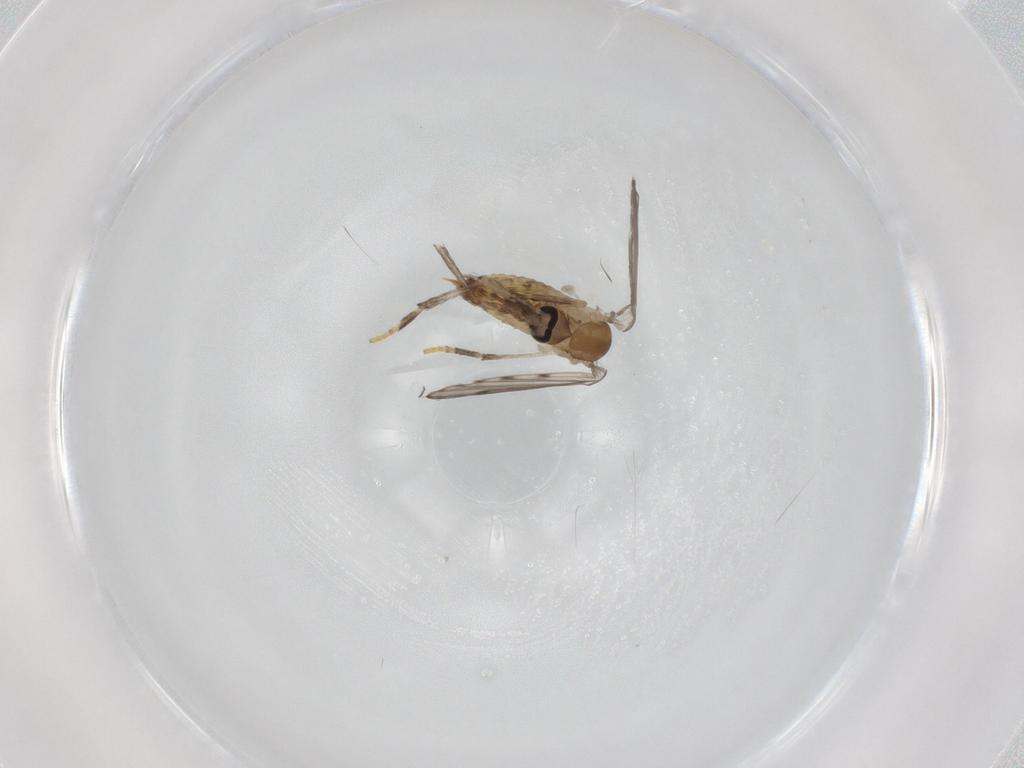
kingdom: Animalia
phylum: Arthropoda
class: Insecta
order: Diptera
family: Psychodidae
